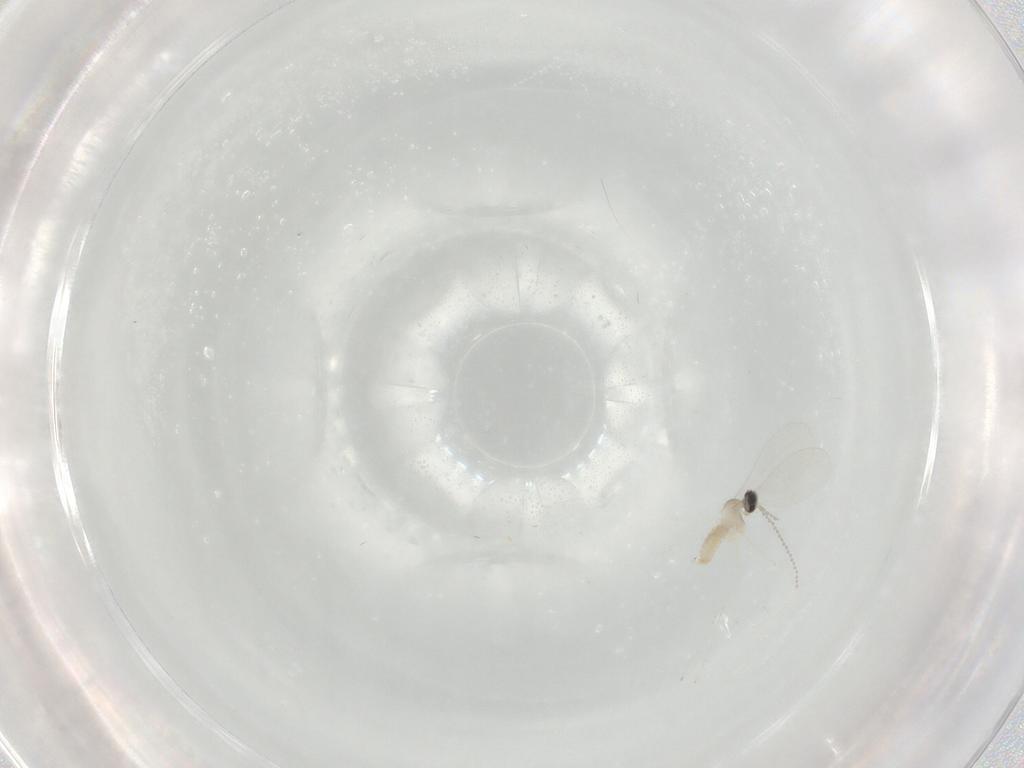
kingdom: Animalia
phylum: Arthropoda
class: Insecta
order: Diptera
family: Cecidomyiidae
